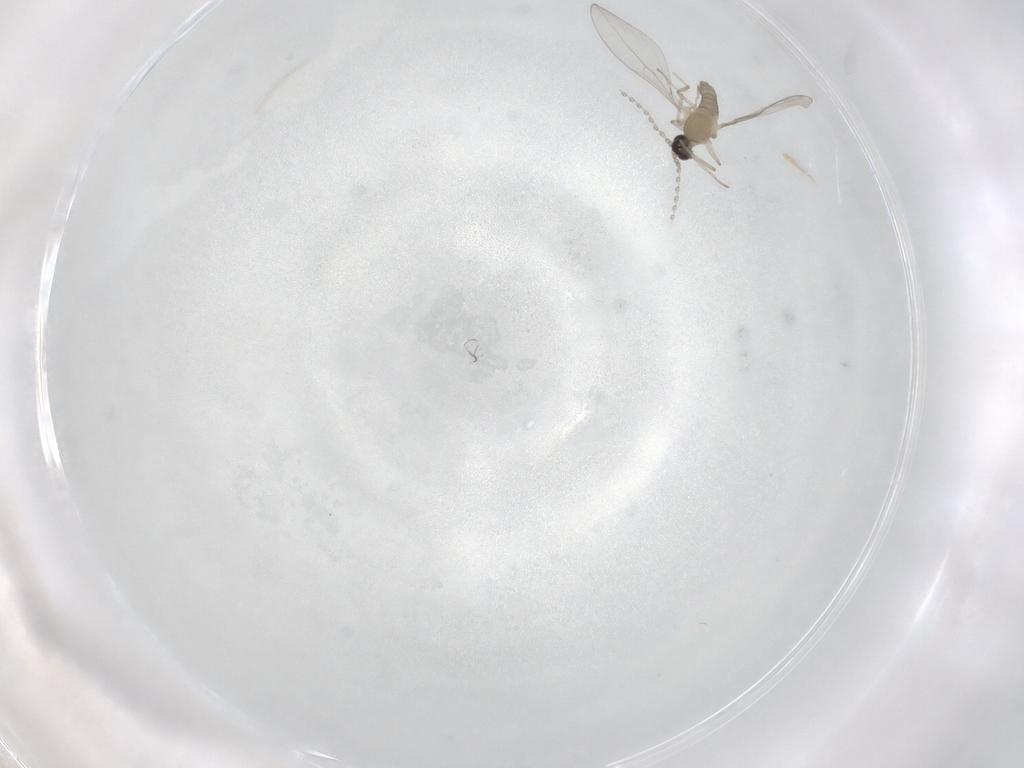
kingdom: Animalia
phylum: Arthropoda
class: Insecta
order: Diptera
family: Cecidomyiidae
